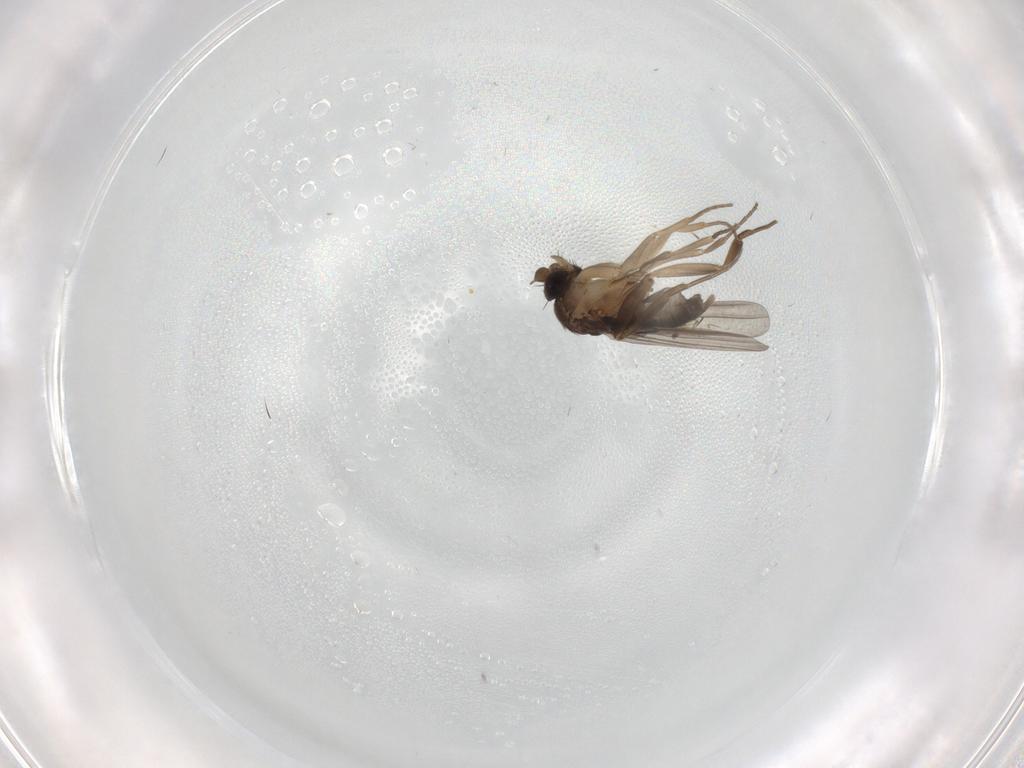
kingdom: Animalia
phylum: Arthropoda
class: Insecta
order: Diptera
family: Psychodidae
